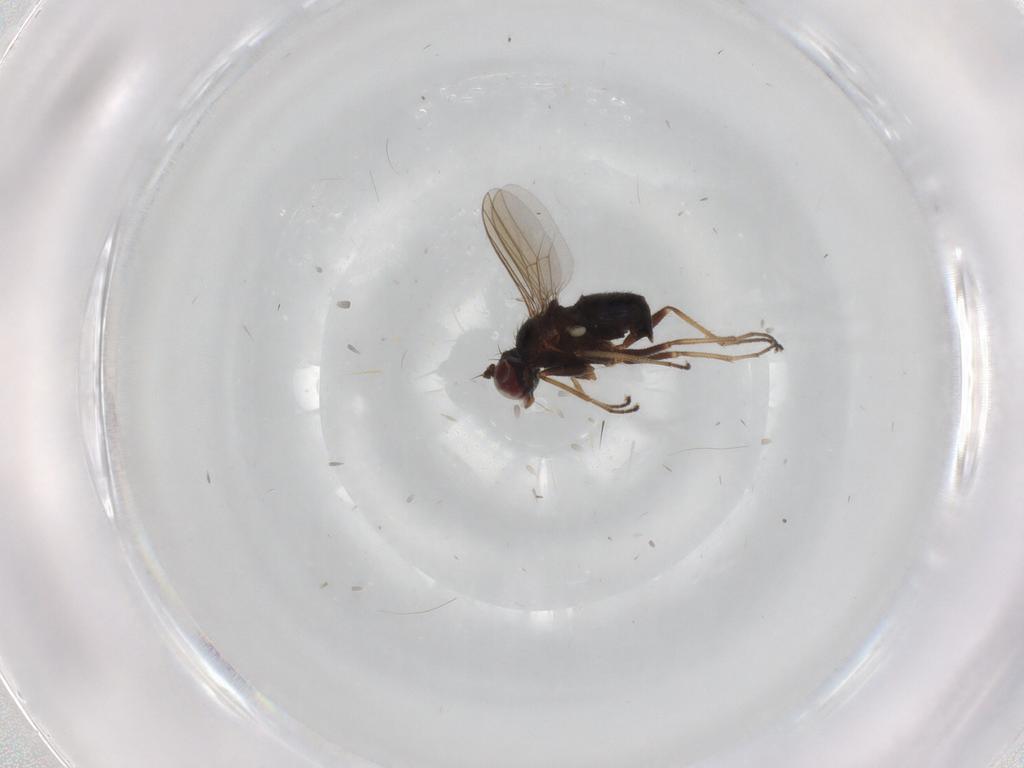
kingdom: Animalia
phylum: Arthropoda
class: Insecta
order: Diptera
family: Dolichopodidae
